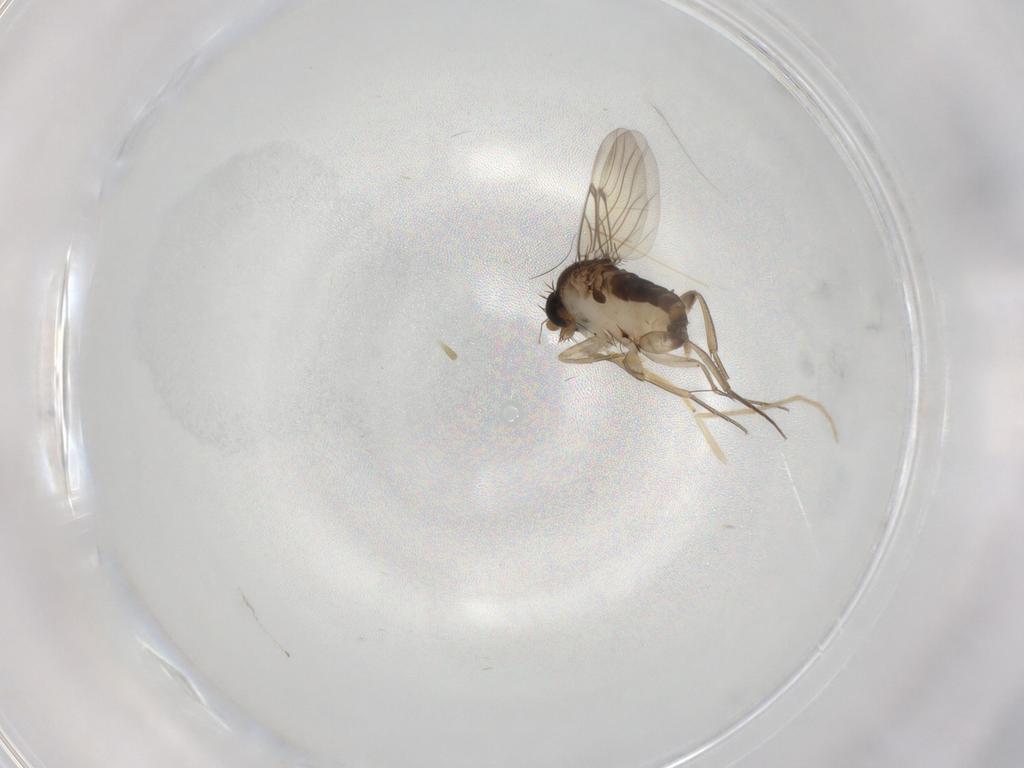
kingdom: Animalia
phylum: Arthropoda
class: Insecta
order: Diptera
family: Chironomidae
